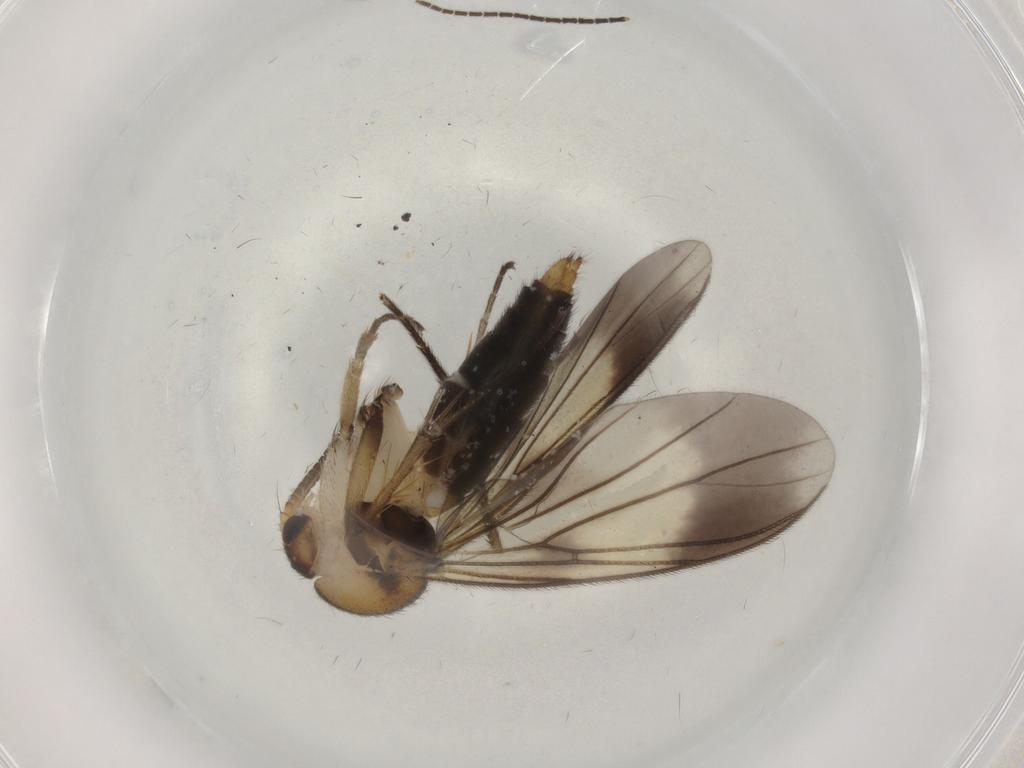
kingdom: Animalia
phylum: Arthropoda
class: Insecta
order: Diptera
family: Mycetophilidae
